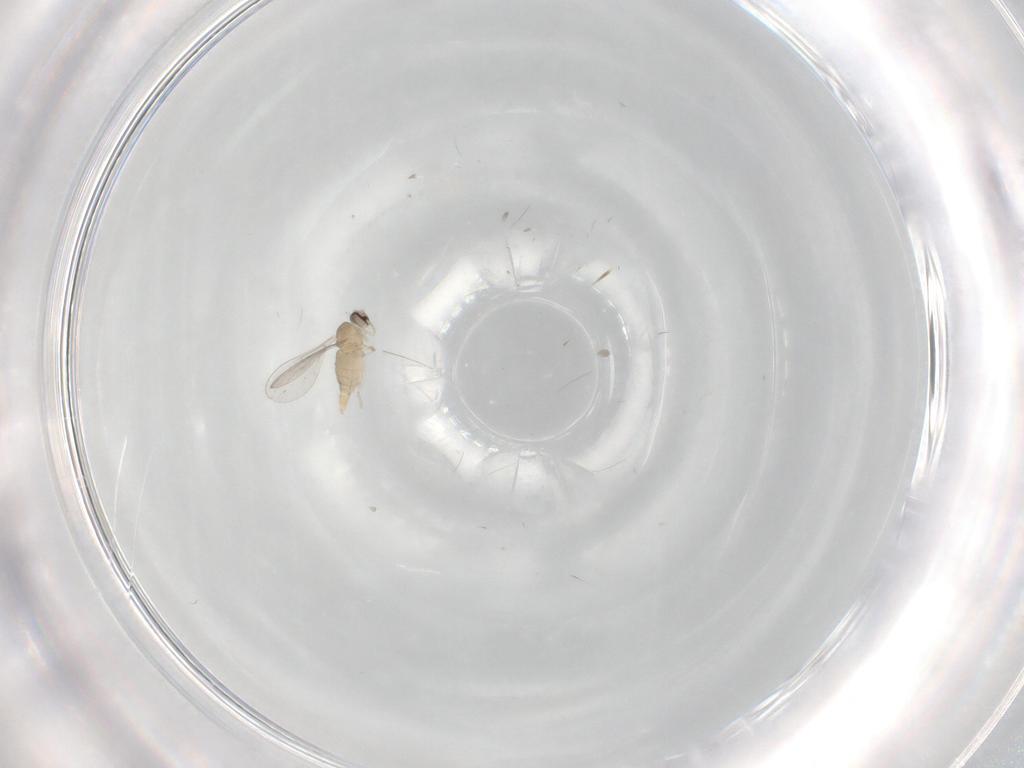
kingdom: Animalia
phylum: Arthropoda
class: Insecta
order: Diptera
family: Cecidomyiidae
